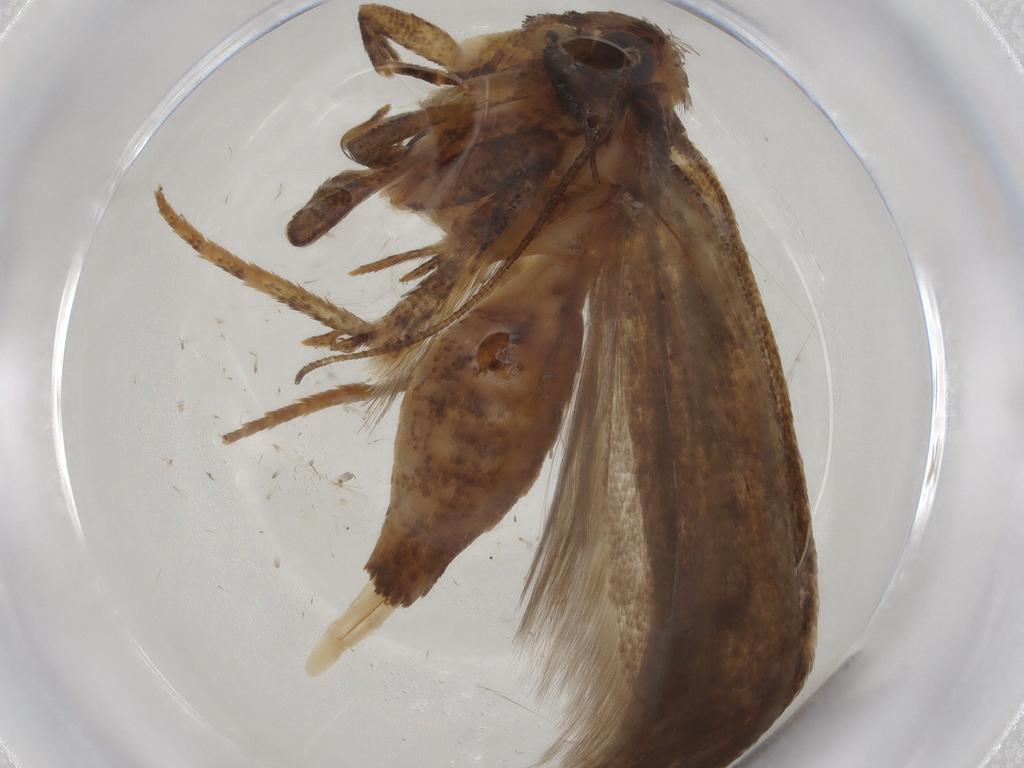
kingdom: Animalia
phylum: Arthropoda
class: Insecta
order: Lepidoptera
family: Gelechiidae
